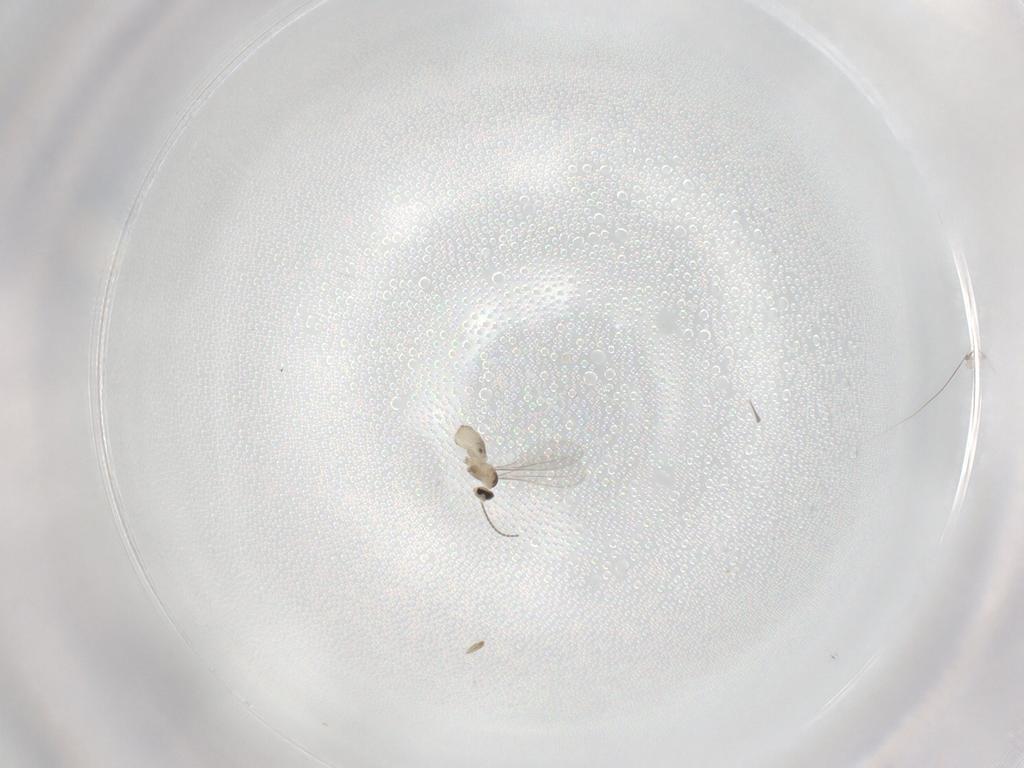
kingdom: Animalia
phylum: Arthropoda
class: Insecta
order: Diptera
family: Cecidomyiidae
